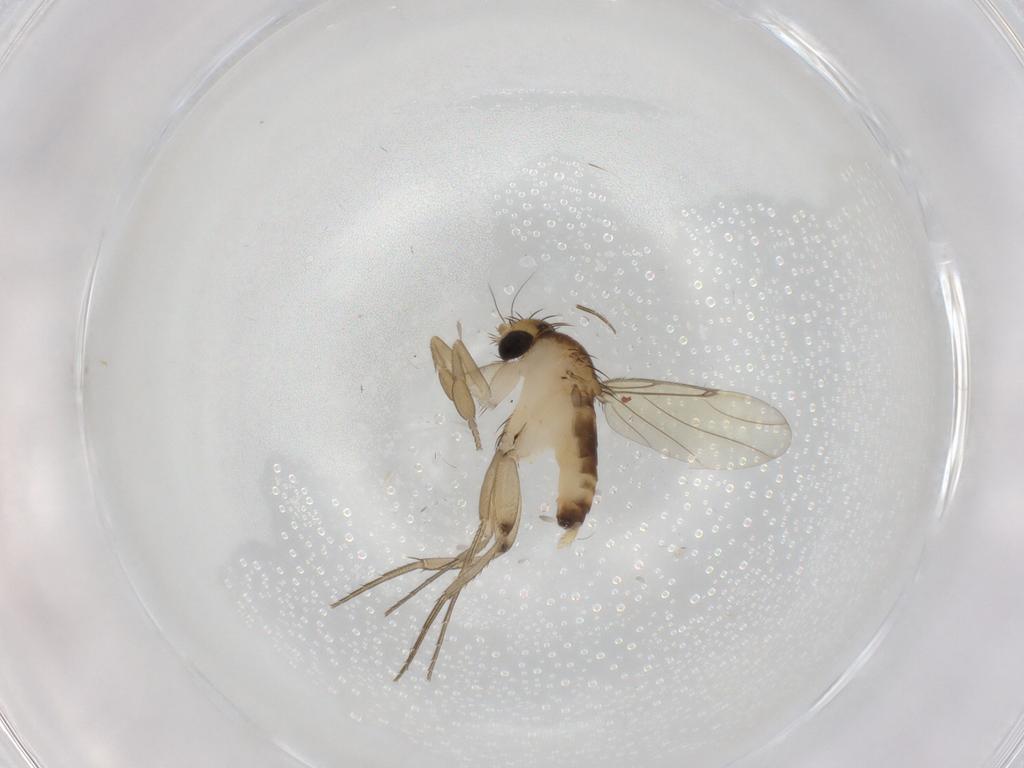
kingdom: Animalia
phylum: Arthropoda
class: Insecta
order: Diptera
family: Phoridae
